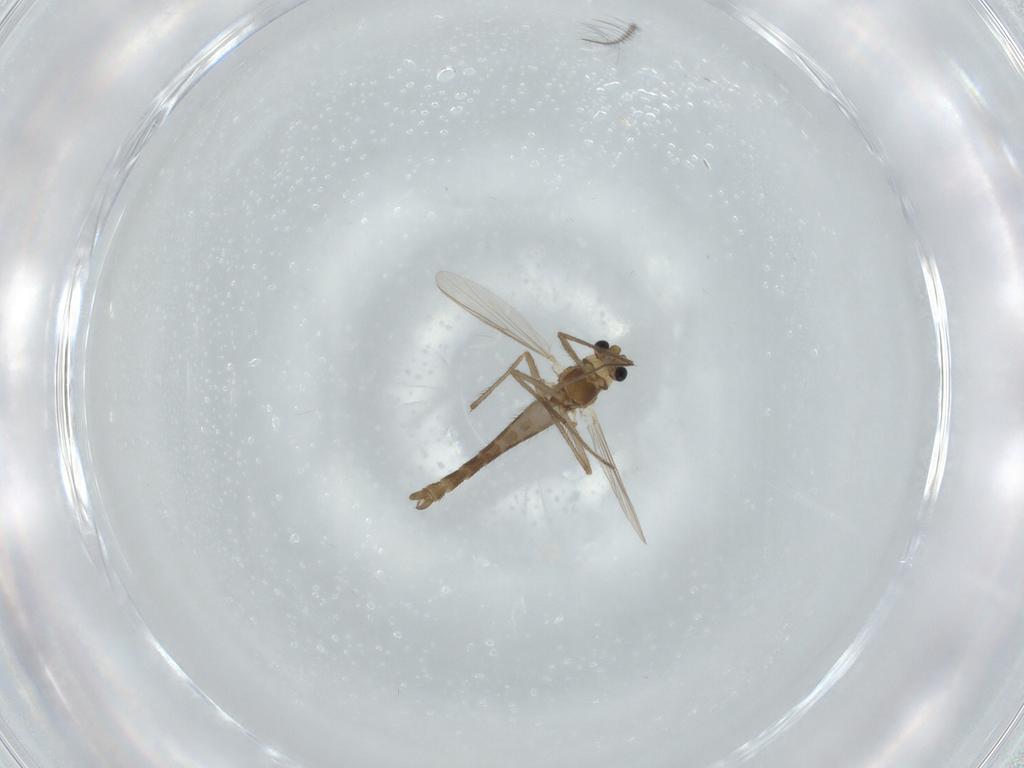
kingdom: Animalia
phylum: Arthropoda
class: Insecta
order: Diptera
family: Chironomidae
